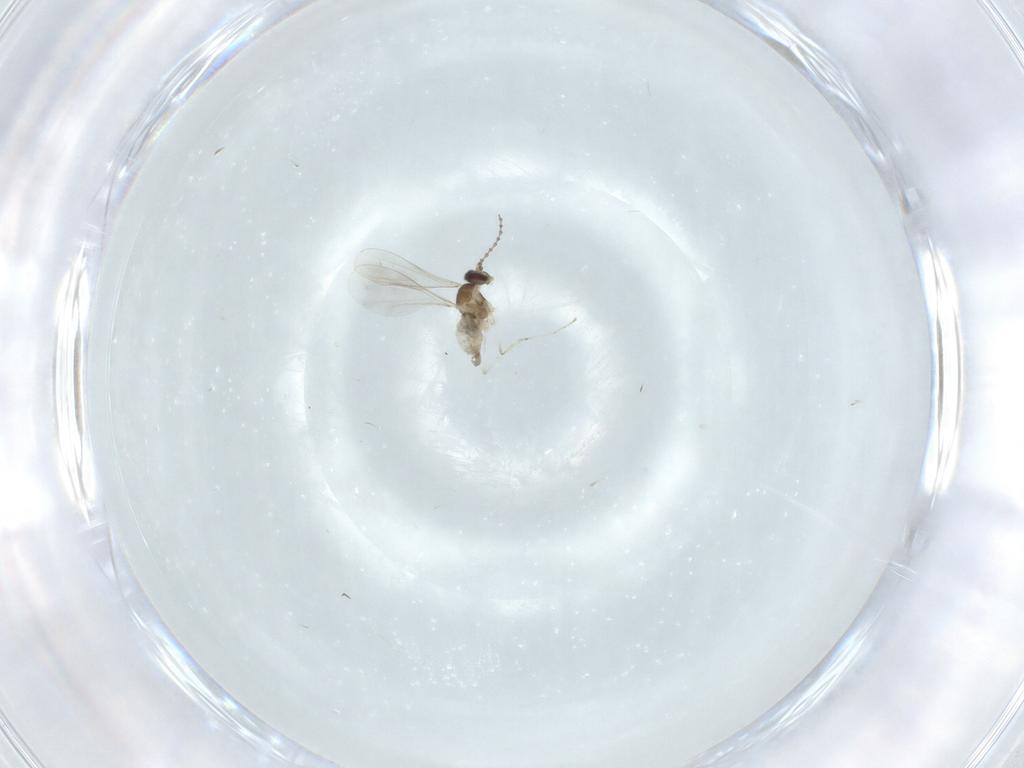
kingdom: Animalia
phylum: Arthropoda
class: Insecta
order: Diptera
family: Cecidomyiidae
